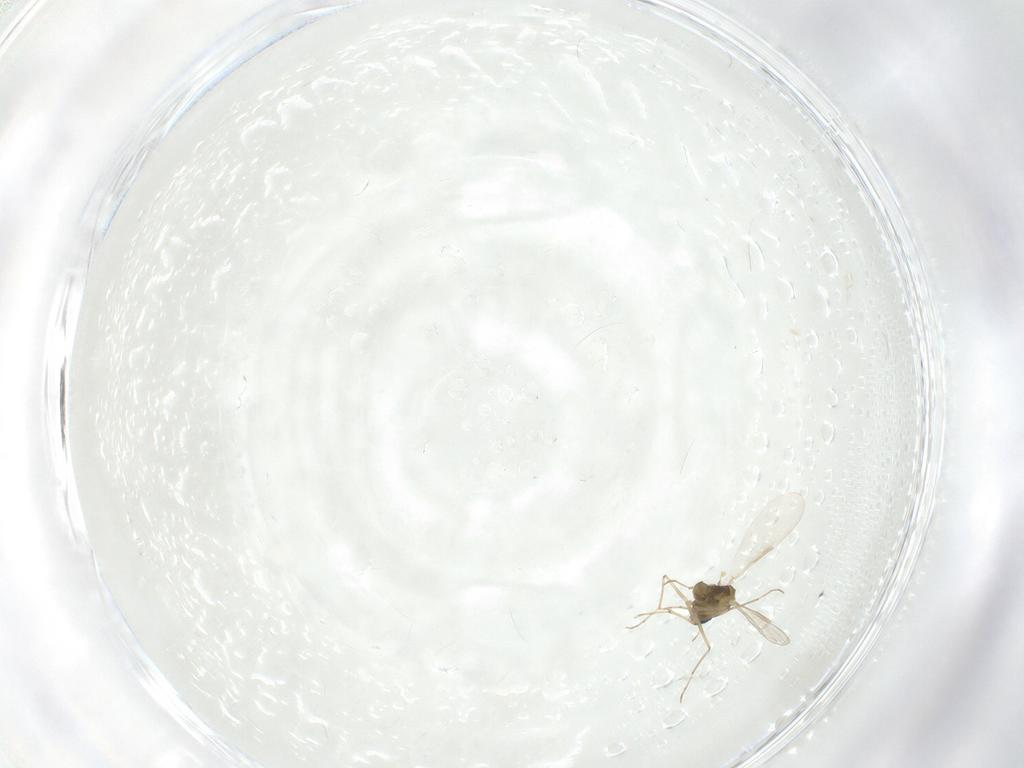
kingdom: Animalia
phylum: Arthropoda
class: Insecta
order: Diptera
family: Chironomidae
